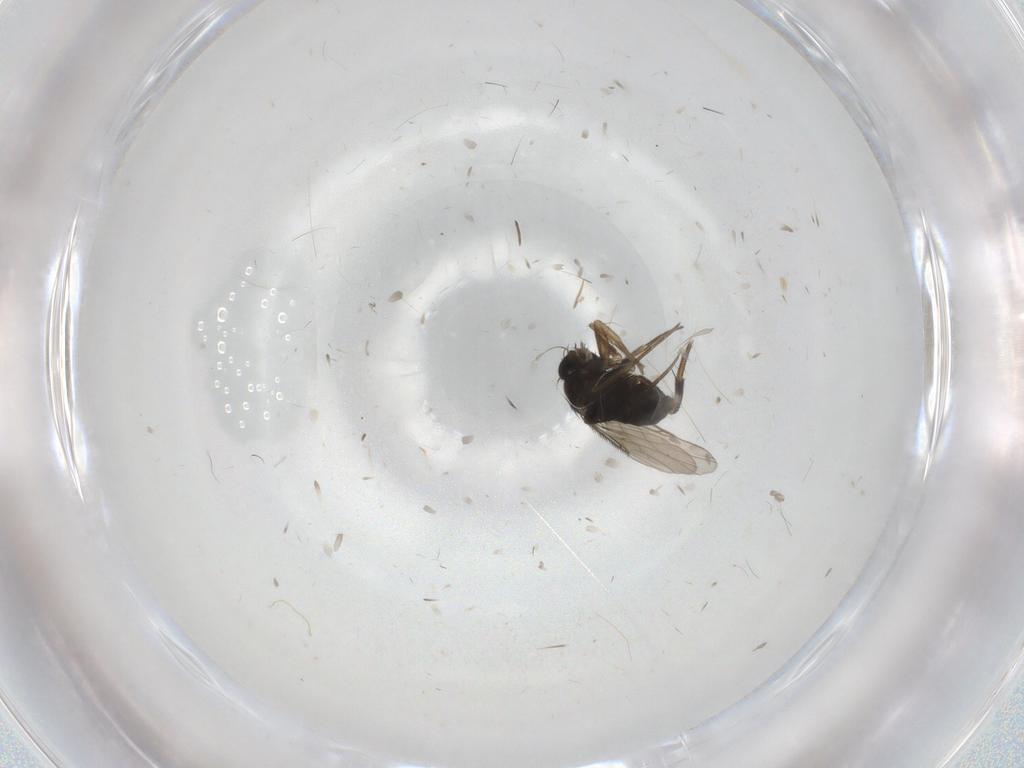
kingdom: Animalia
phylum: Arthropoda
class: Insecta
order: Diptera
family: Phoridae
